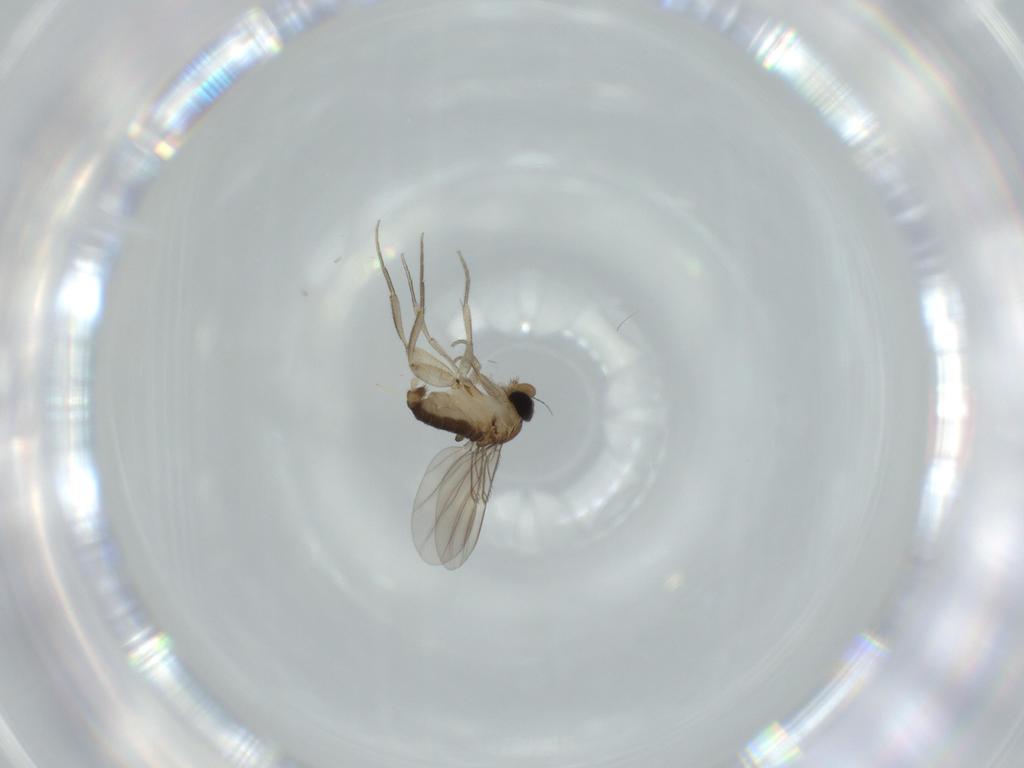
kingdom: Animalia
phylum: Arthropoda
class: Insecta
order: Diptera
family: Phoridae
